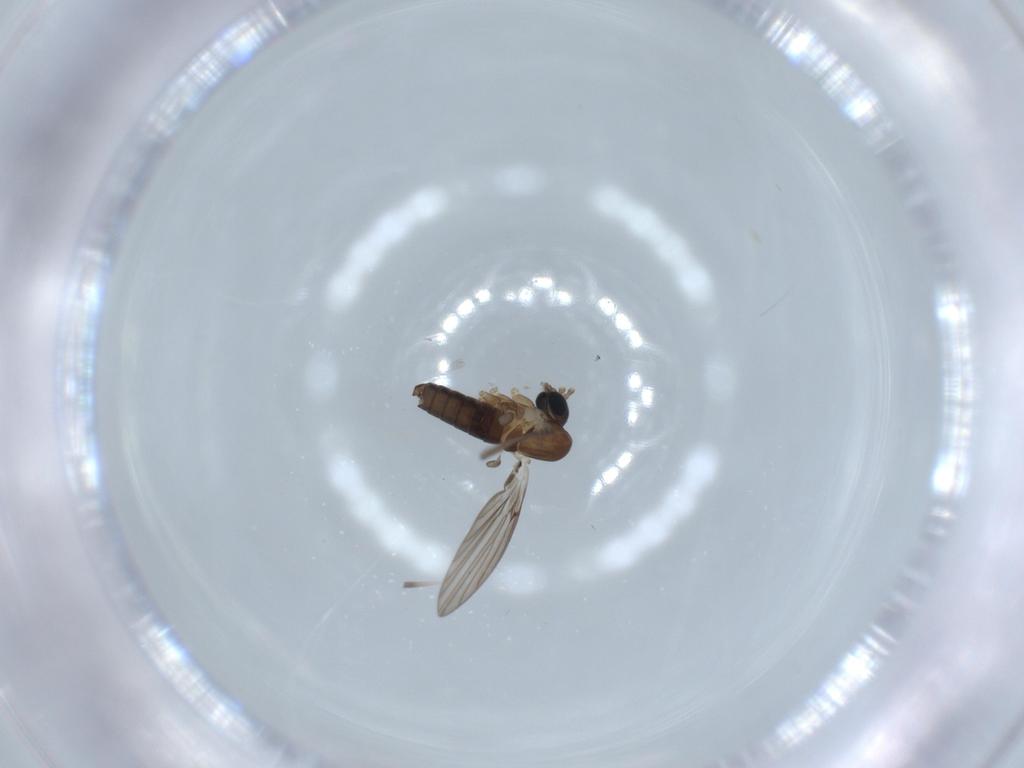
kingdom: Animalia
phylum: Arthropoda
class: Insecta
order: Diptera
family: Psychodidae
